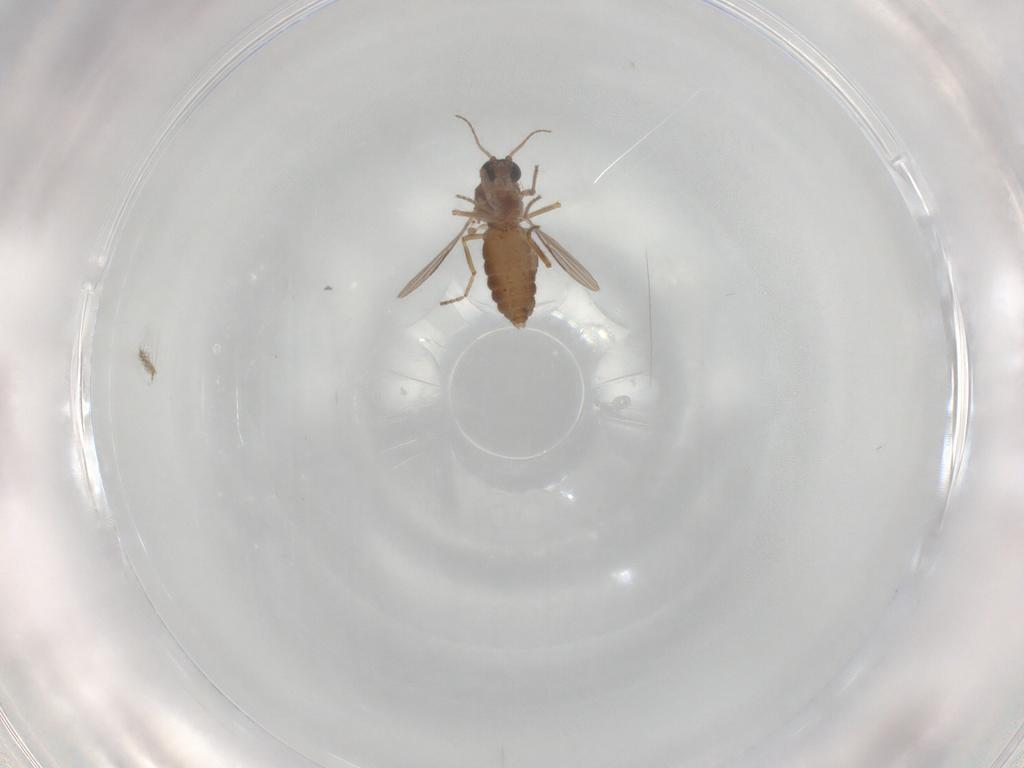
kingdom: Animalia
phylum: Arthropoda
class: Insecta
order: Diptera
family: Ceratopogonidae
